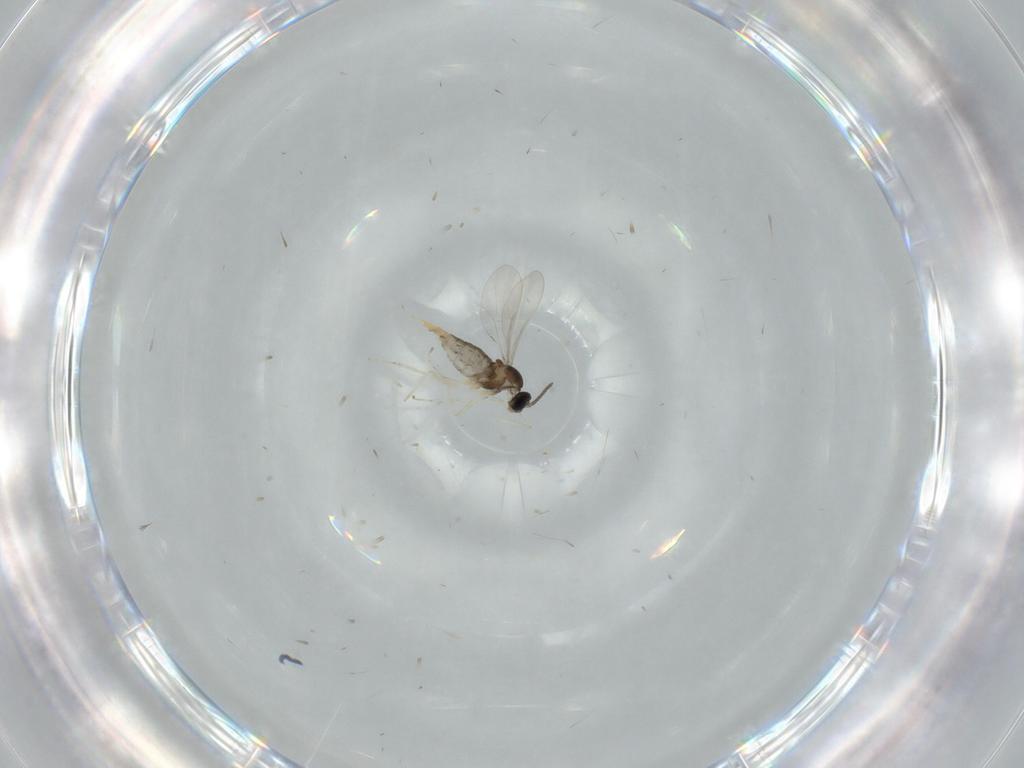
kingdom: Animalia
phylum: Arthropoda
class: Insecta
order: Diptera
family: Cecidomyiidae
